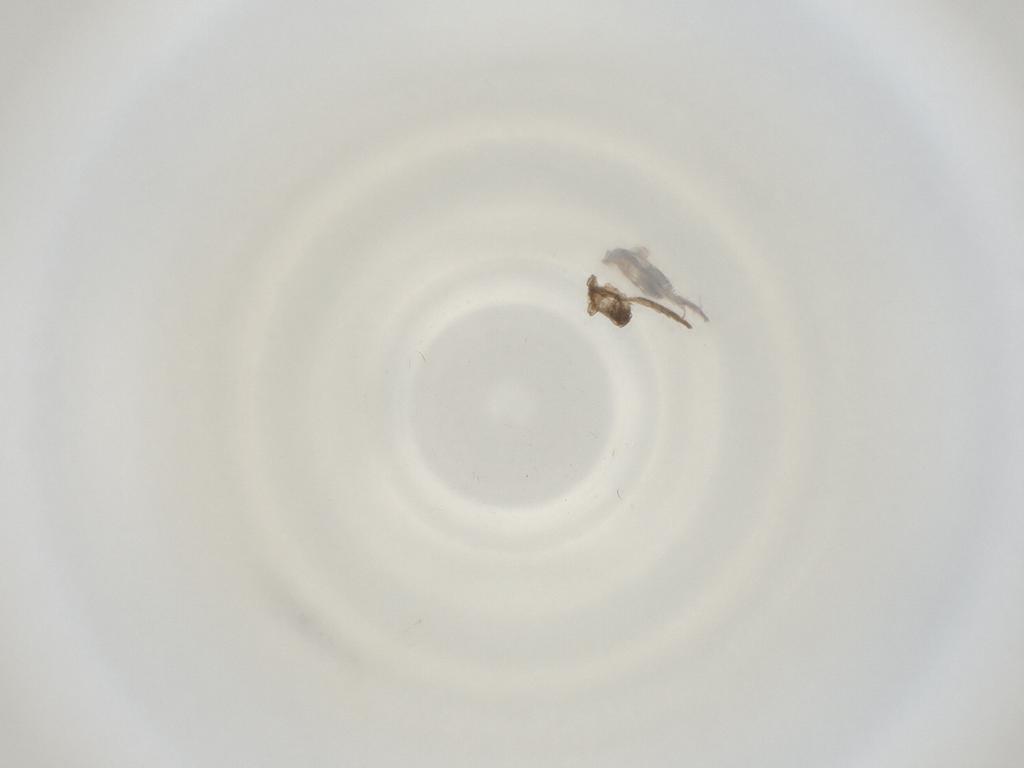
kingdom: Animalia
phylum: Arthropoda
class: Insecta
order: Diptera
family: Cecidomyiidae
